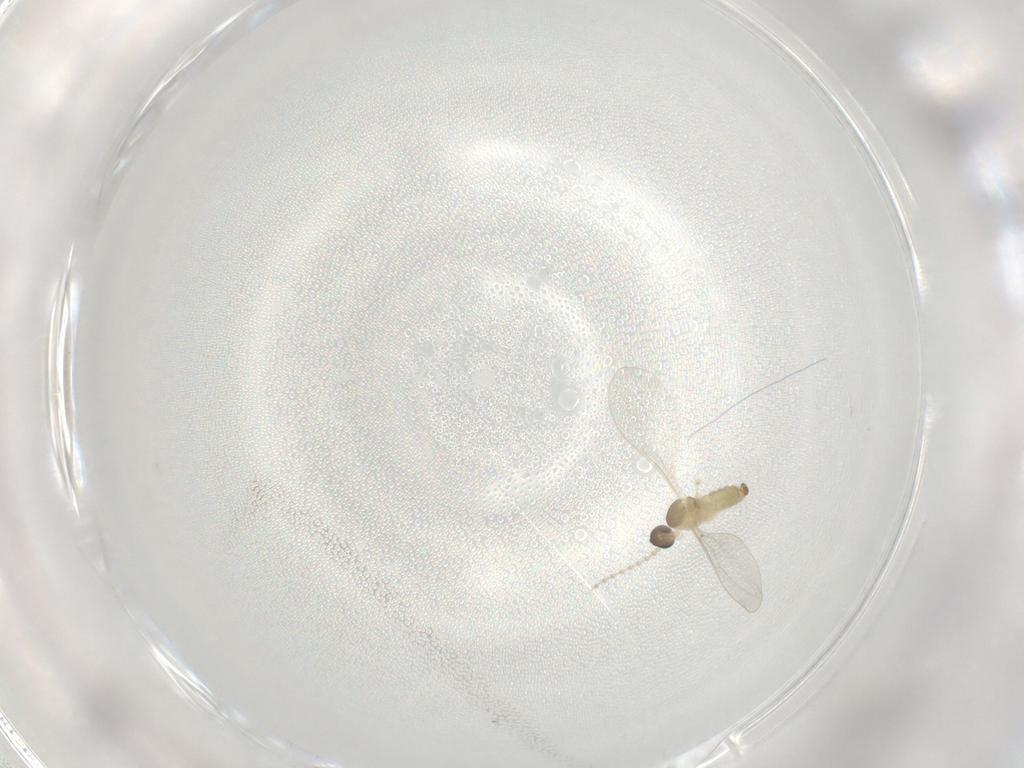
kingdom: Animalia
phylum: Arthropoda
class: Insecta
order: Diptera
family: Cecidomyiidae
